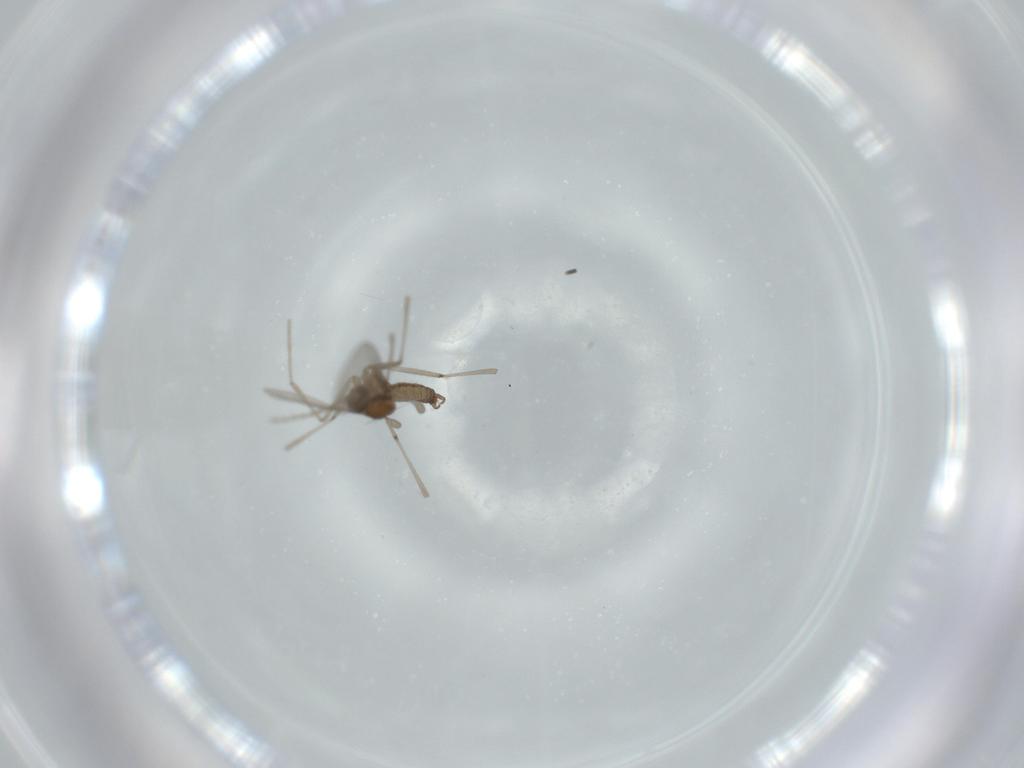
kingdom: Animalia
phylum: Arthropoda
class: Insecta
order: Diptera
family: Cecidomyiidae
